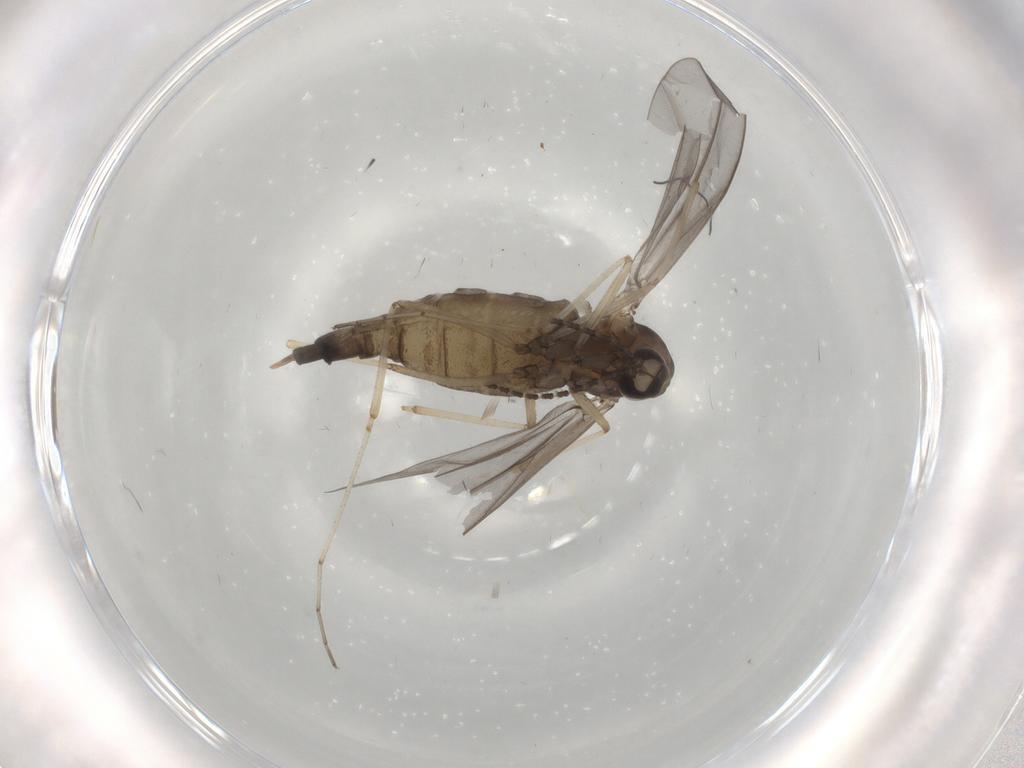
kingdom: Animalia
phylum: Arthropoda
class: Insecta
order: Diptera
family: Cecidomyiidae
